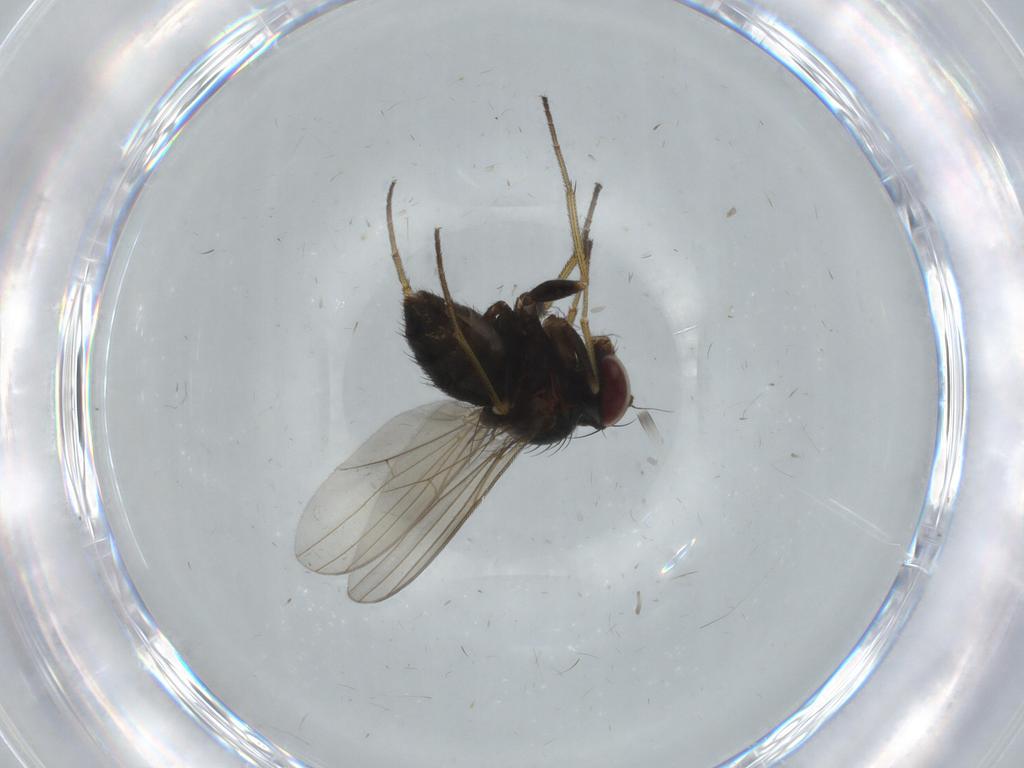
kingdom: Animalia
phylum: Arthropoda
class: Insecta
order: Diptera
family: Dolichopodidae
